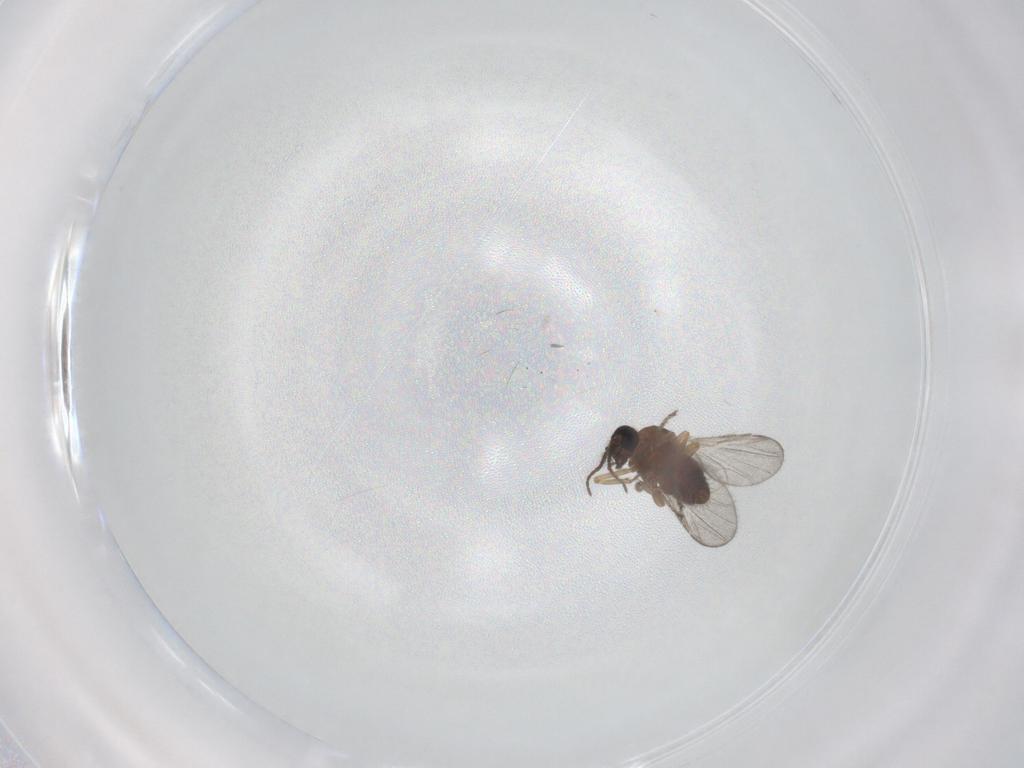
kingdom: Animalia
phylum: Arthropoda
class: Insecta
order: Diptera
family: Ceratopogonidae
